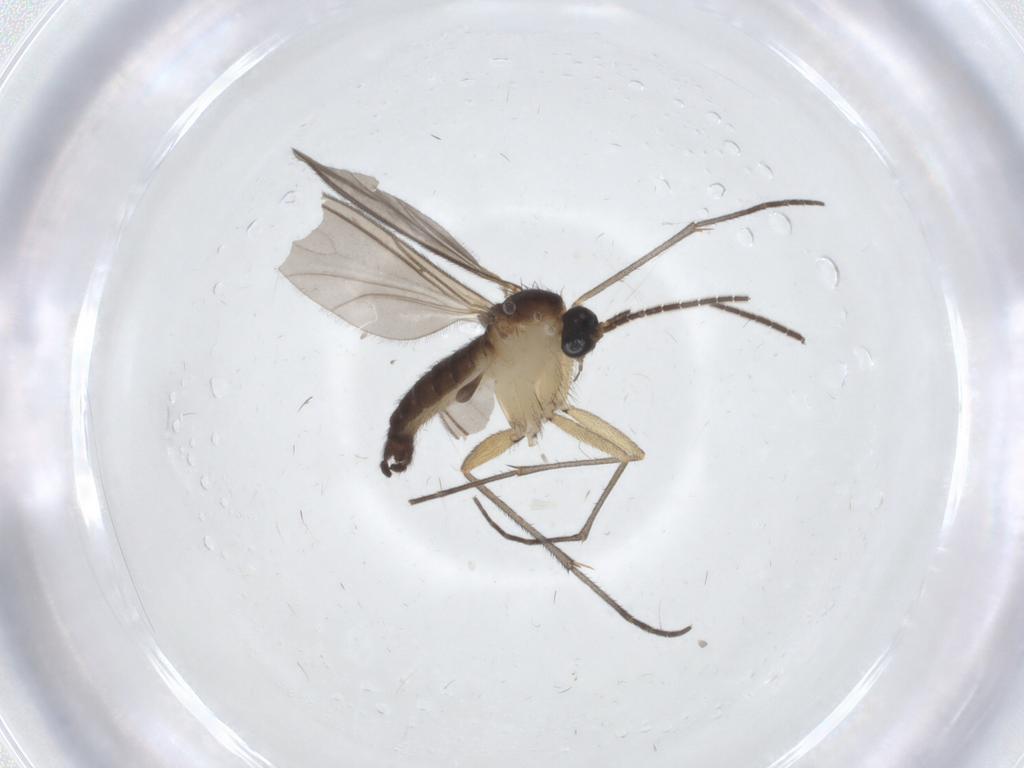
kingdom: Animalia
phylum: Arthropoda
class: Insecta
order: Diptera
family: Sciaridae
